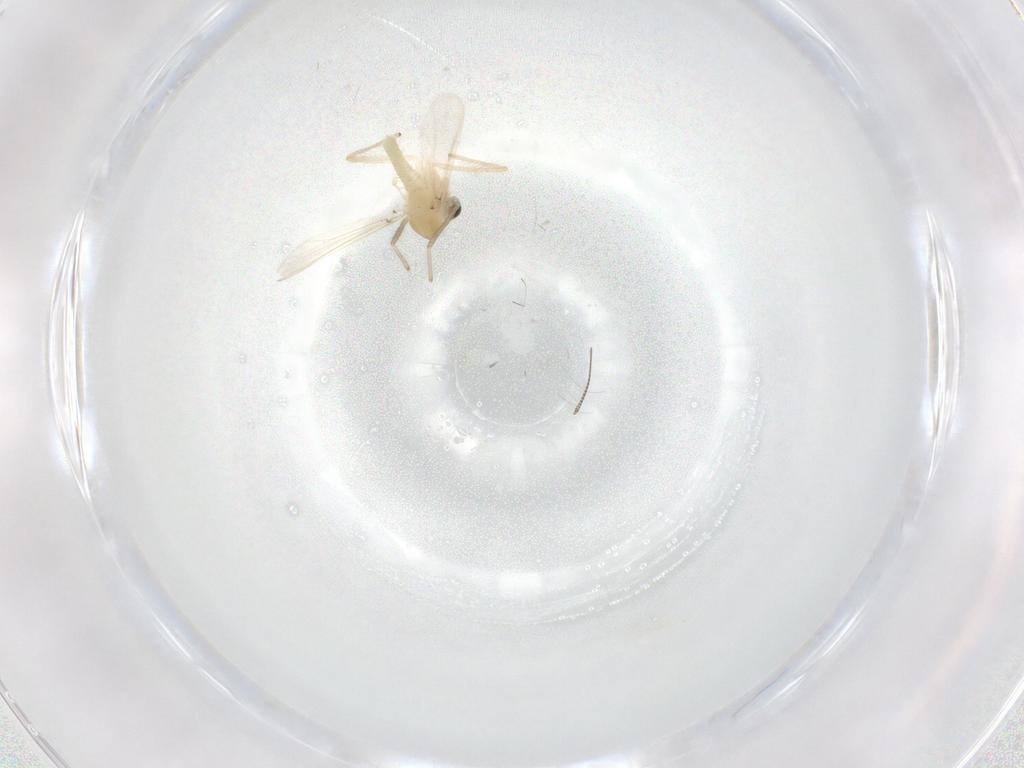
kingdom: Animalia
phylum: Arthropoda
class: Insecta
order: Diptera
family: Chironomidae
